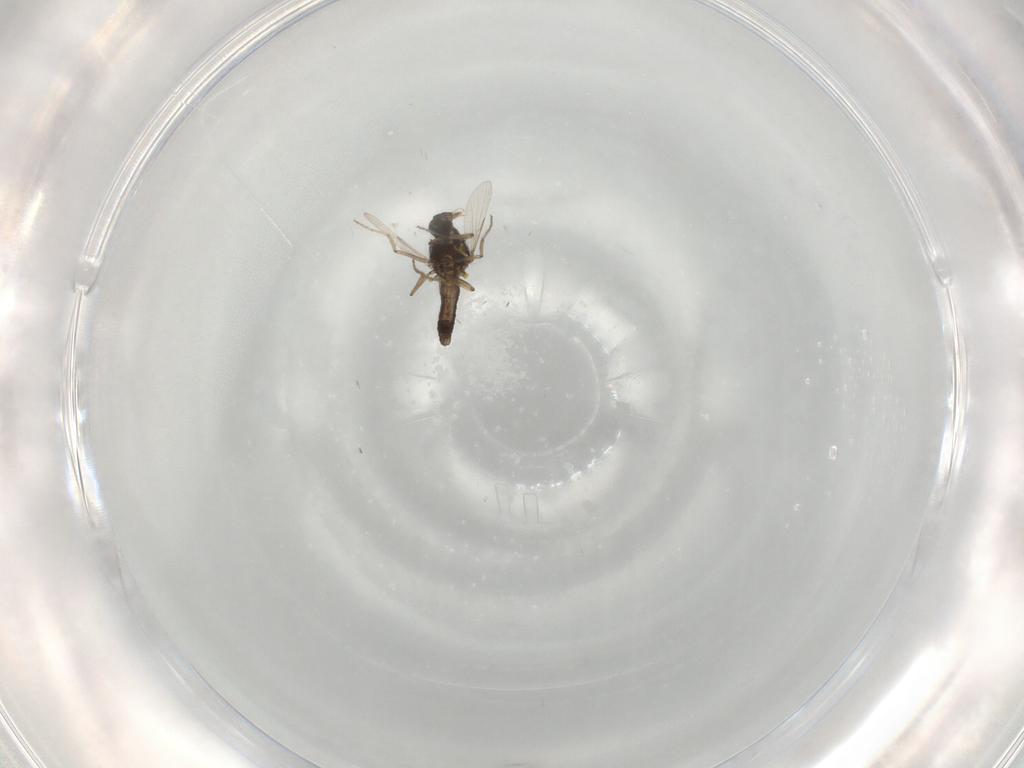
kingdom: Animalia
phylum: Arthropoda
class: Insecta
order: Diptera
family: Ceratopogonidae
